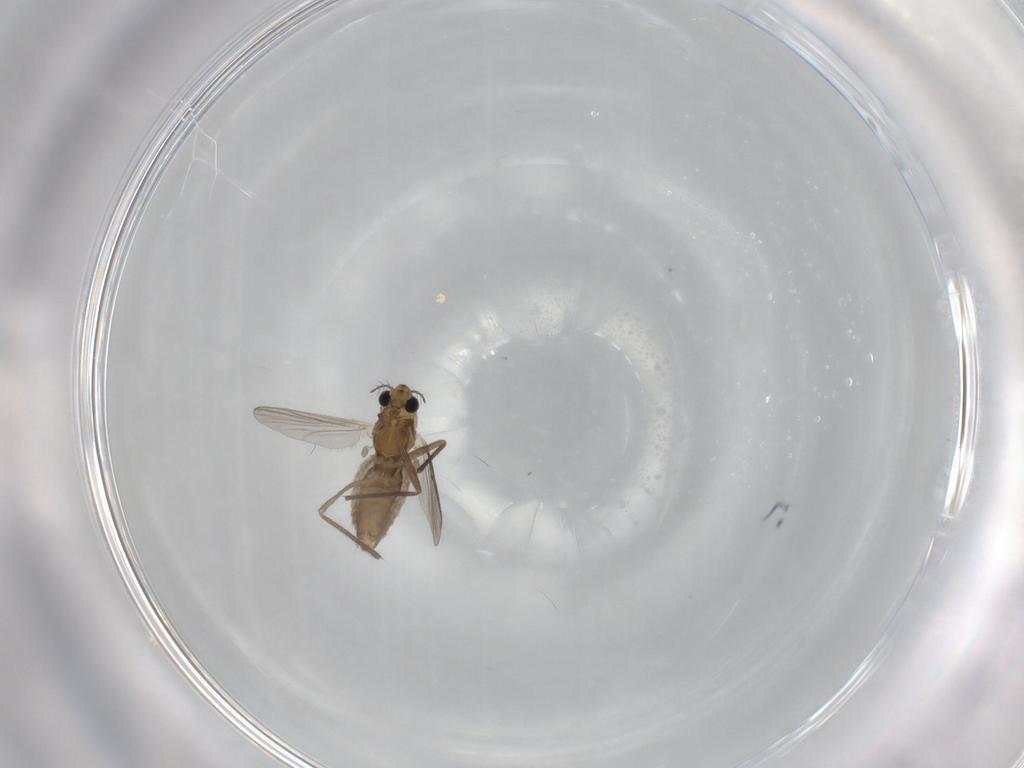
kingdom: Animalia
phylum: Arthropoda
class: Insecta
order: Diptera
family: Chironomidae
